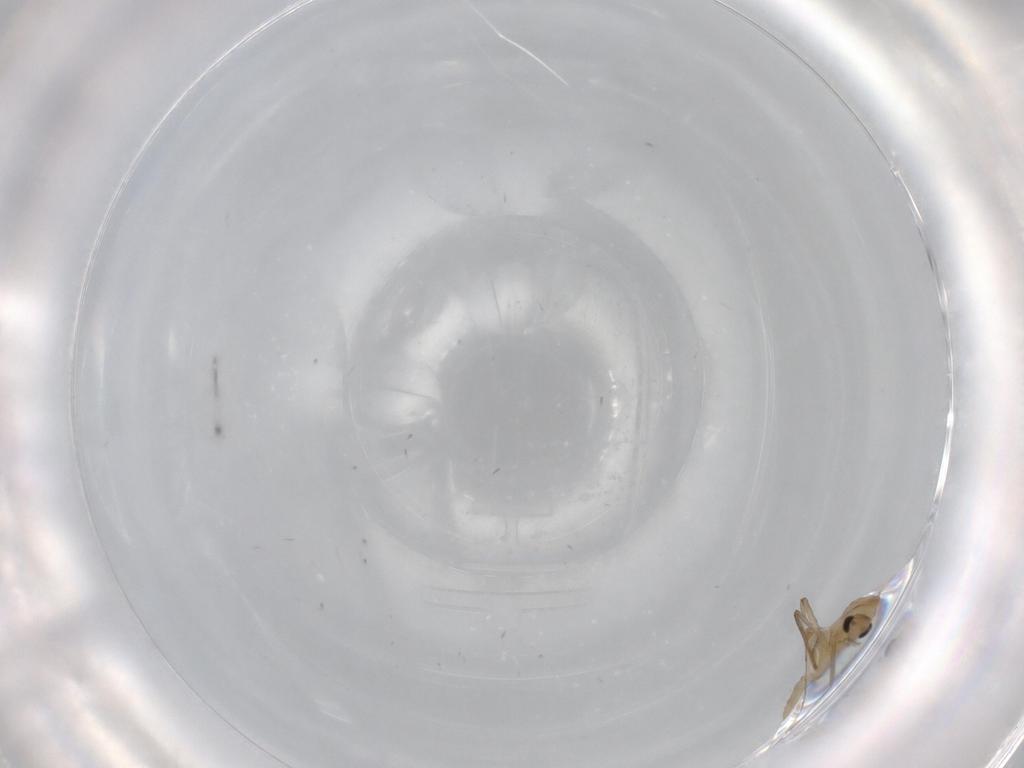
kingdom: Animalia
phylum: Arthropoda
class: Insecta
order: Diptera
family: Chironomidae
